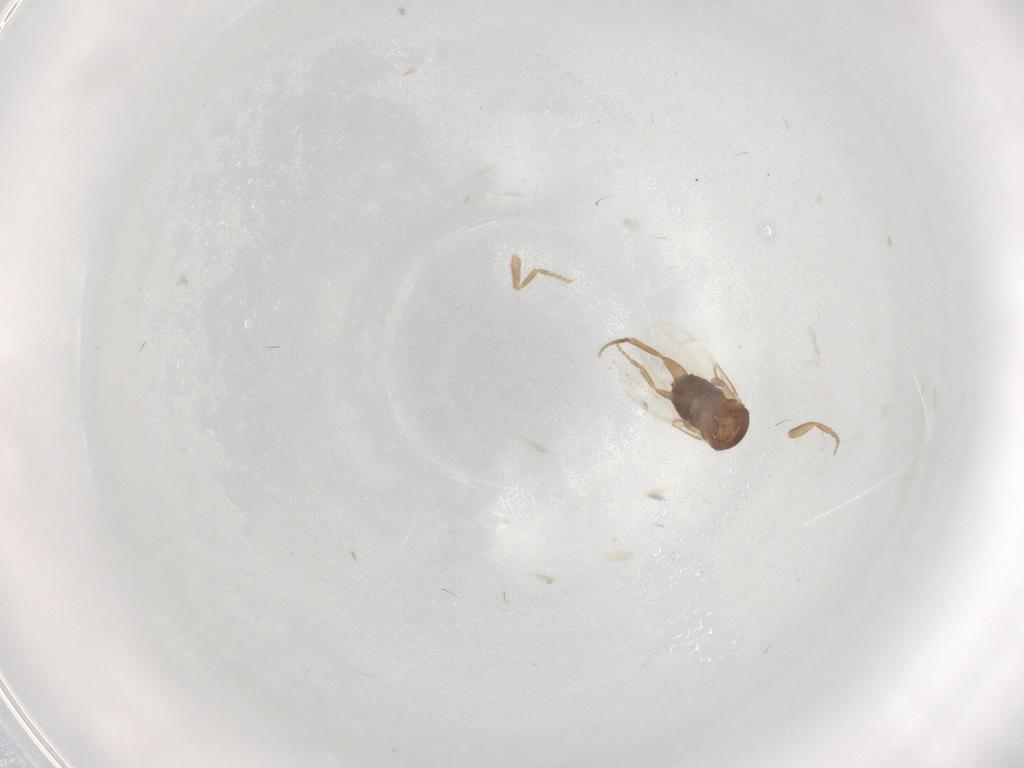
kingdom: Animalia
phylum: Arthropoda
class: Insecta
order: Diptera
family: Phoridae
